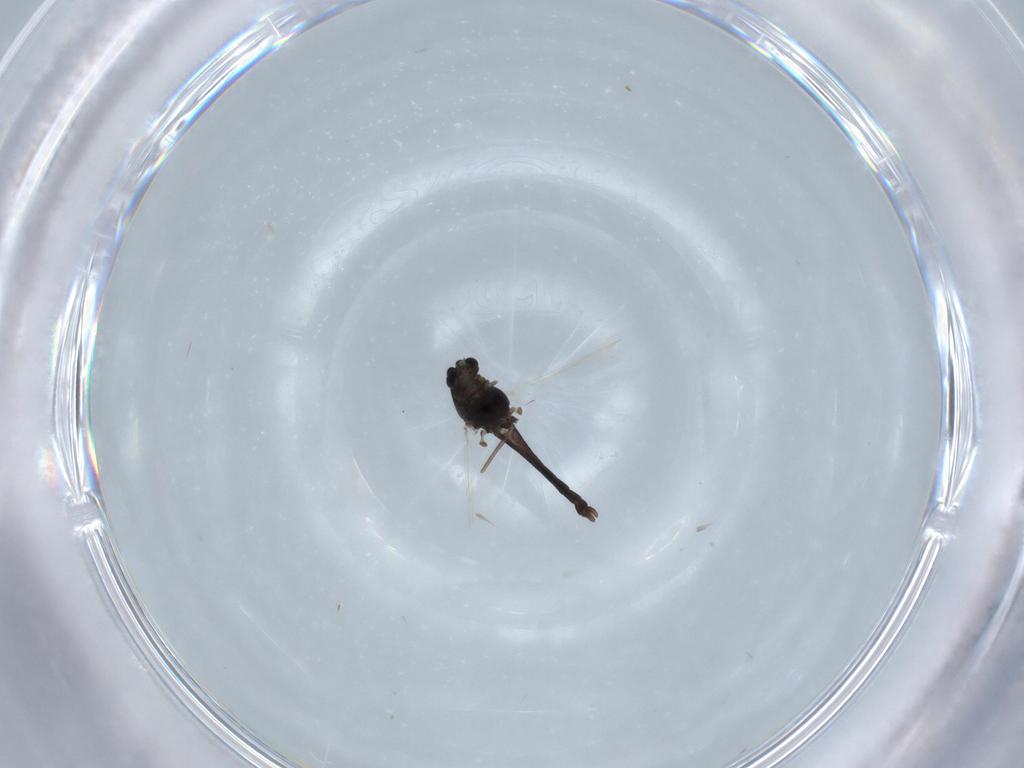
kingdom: Animalia
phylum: Arthropoda
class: Insecta
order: Diptera
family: Chironomidae
